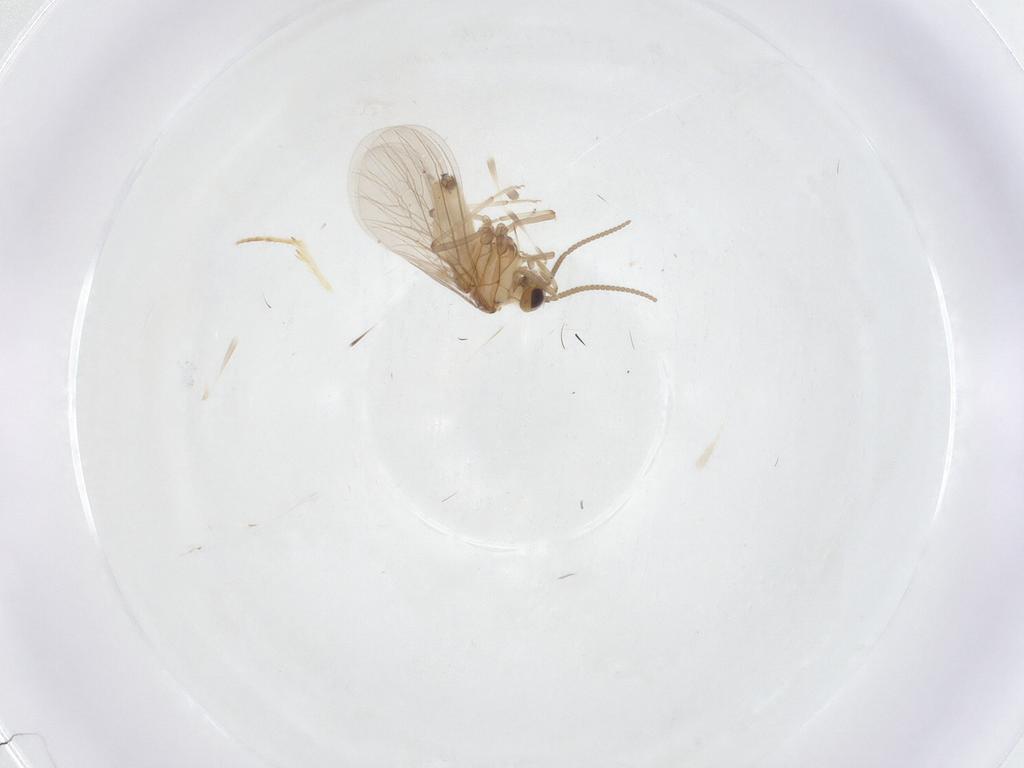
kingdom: Animalia
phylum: Arthropoda
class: Insecta
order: Neuroptera
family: Coniopterygidae
